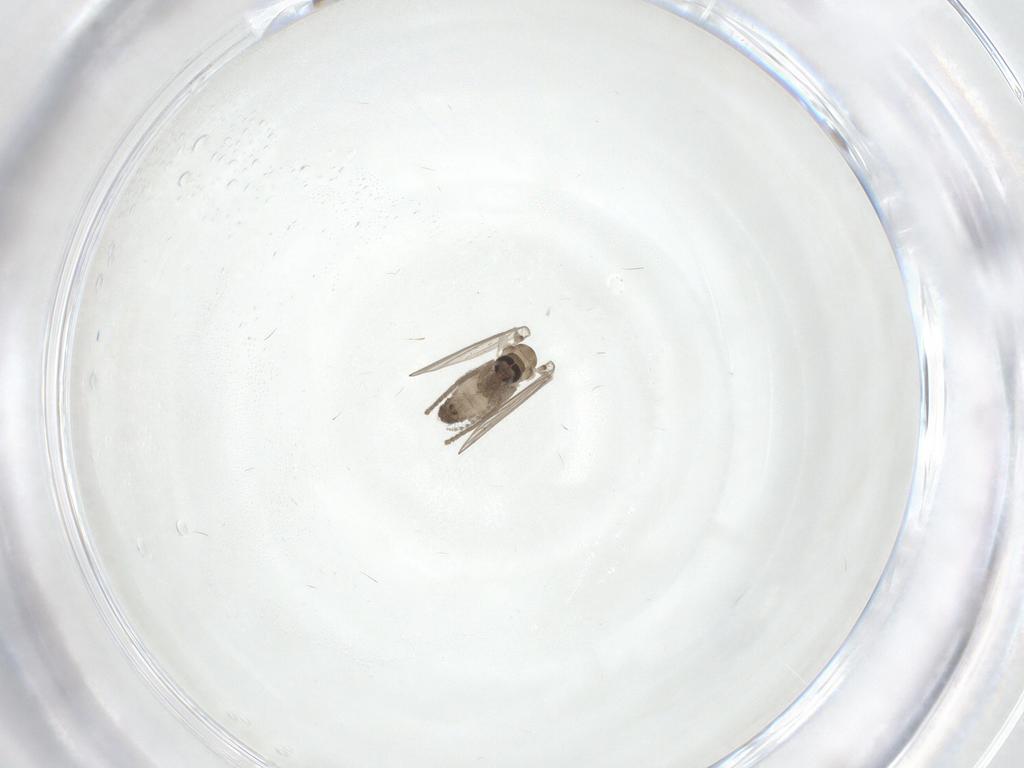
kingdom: Animalia
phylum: Arthropoda
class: Insecta
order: Diptera
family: Psychodidae
